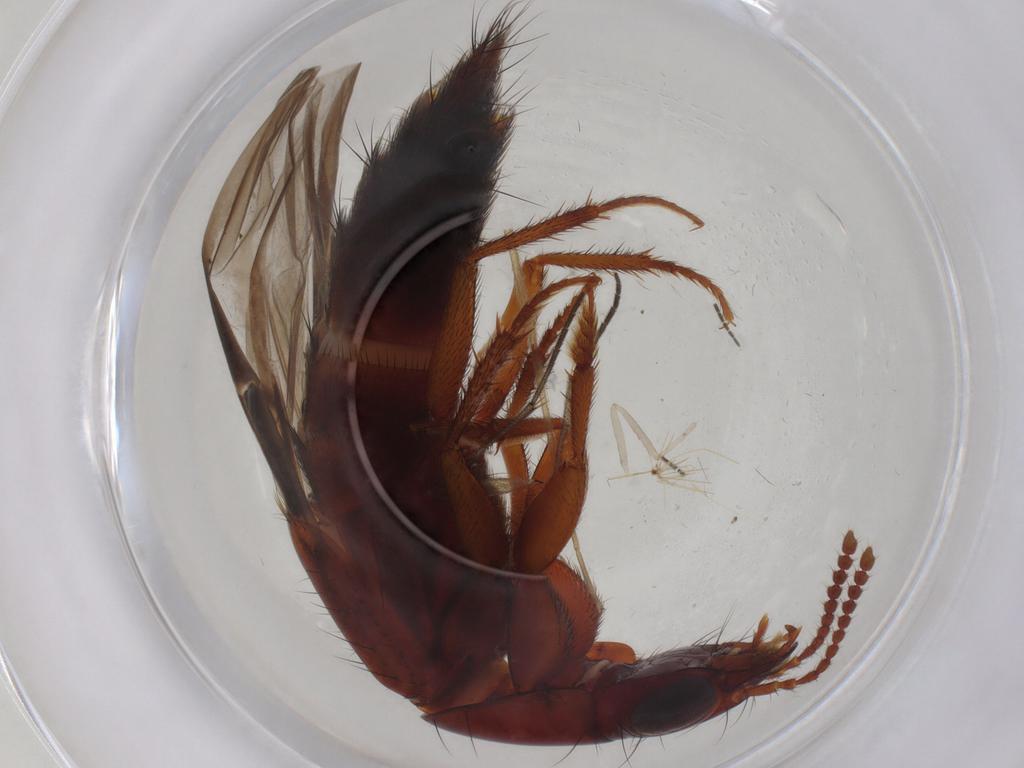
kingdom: Animalia
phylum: Arthropoda
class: Insecta
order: Coleoptera
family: Staphylinidae
